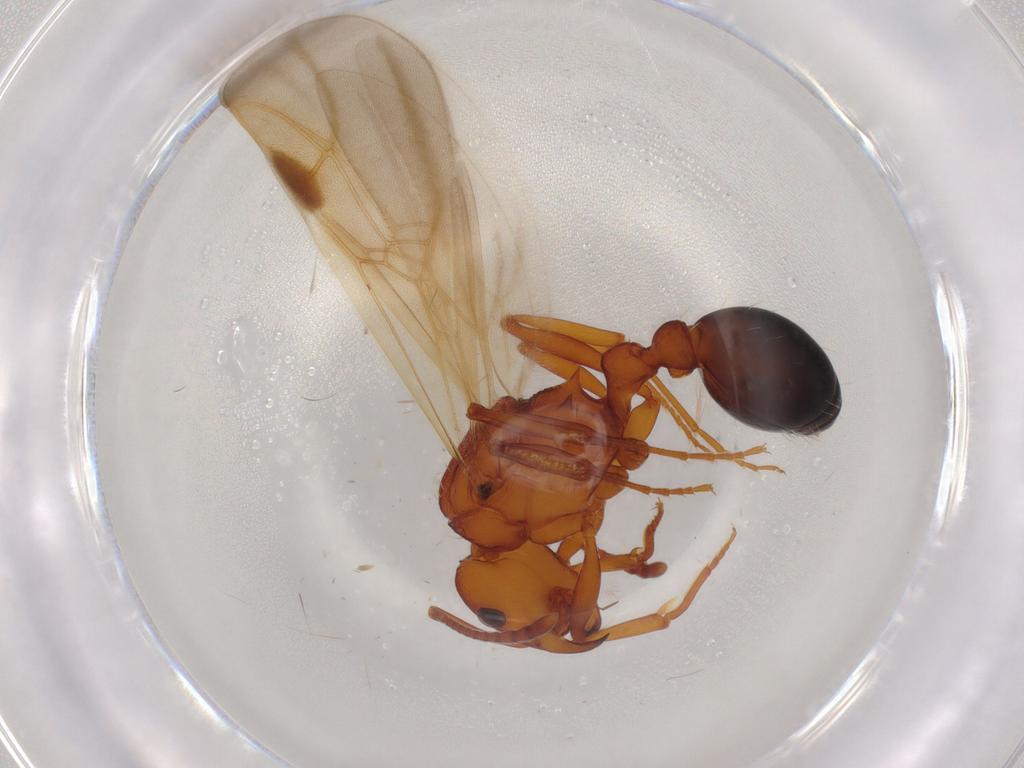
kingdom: Animalia
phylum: Arthropoda
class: Insecta
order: Hymenoptera
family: Formicidae
